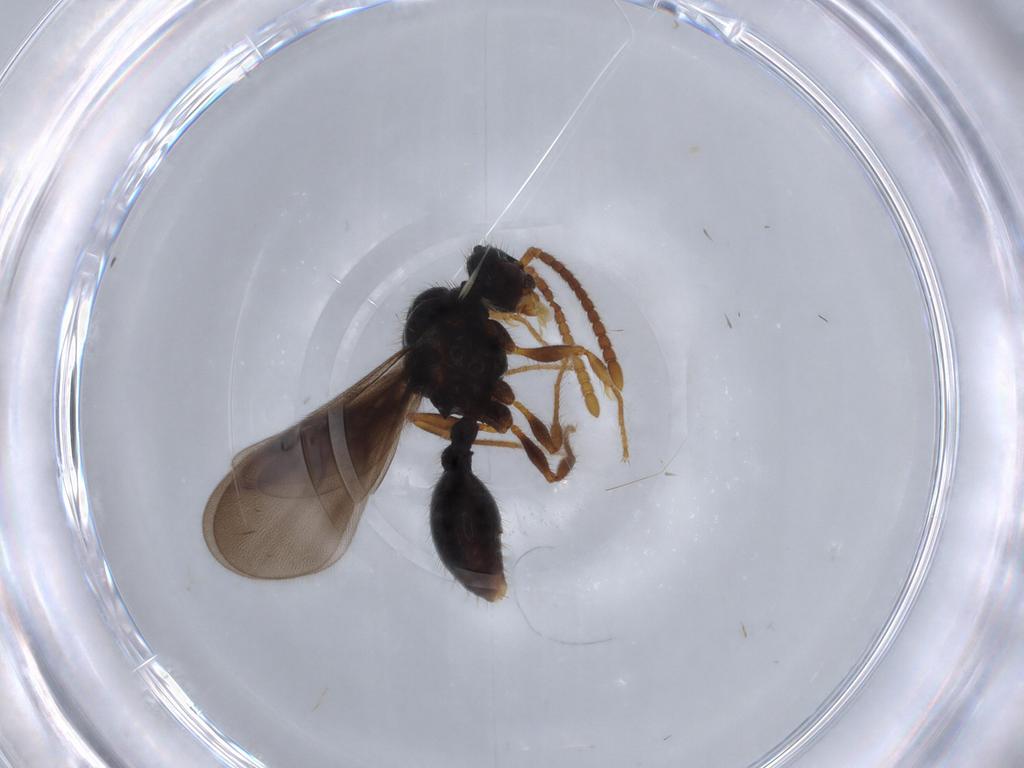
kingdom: Animalia
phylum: Arthropoda
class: Insecta
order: Hymenoptera
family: Formicidae
